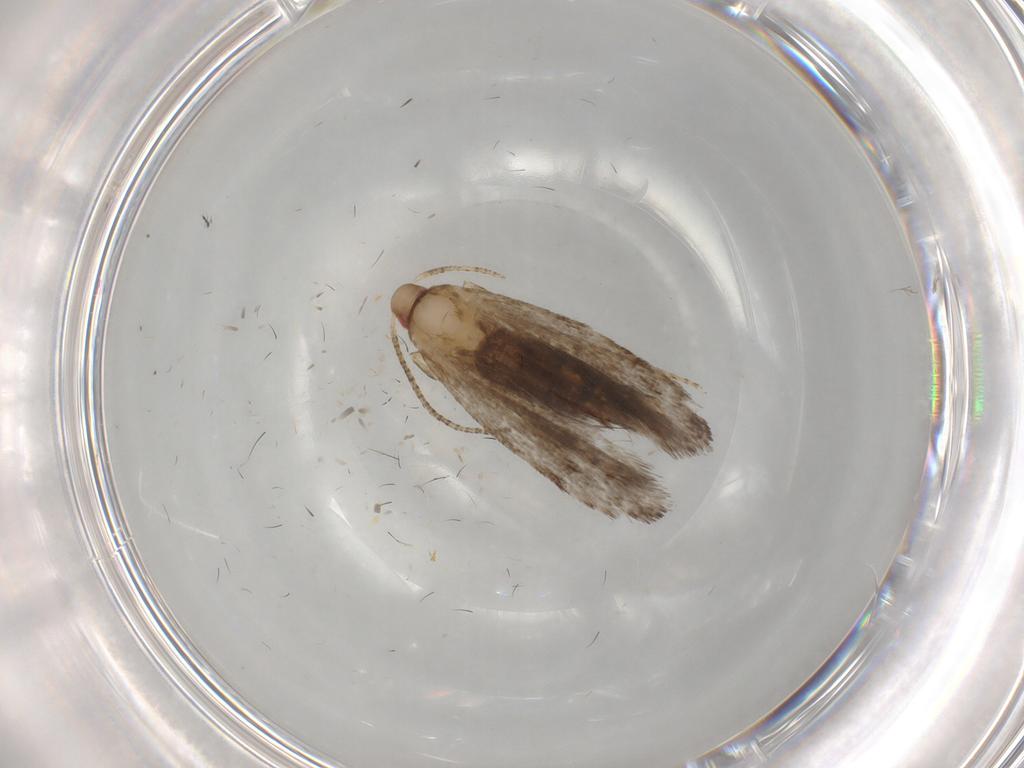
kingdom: Animalia
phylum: Arthropoda
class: Insecta
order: Lepidoptera
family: Gelechiidae
